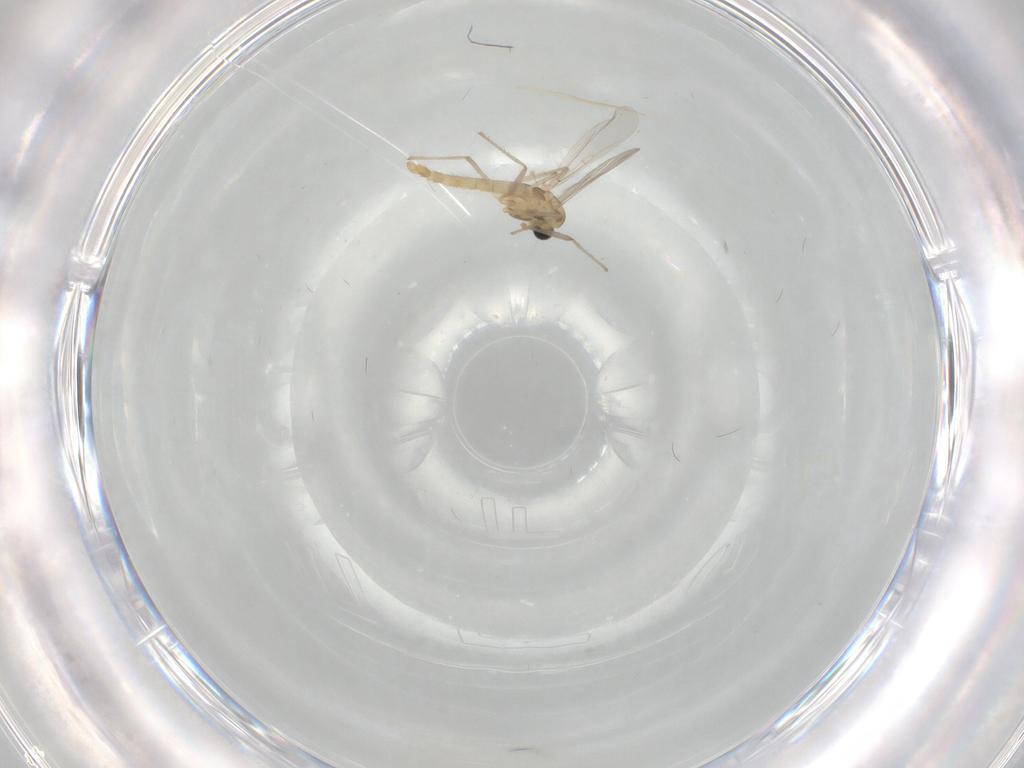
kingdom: Animalia
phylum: Arthropoda
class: Insecta
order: Diptera
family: Psychodidae
